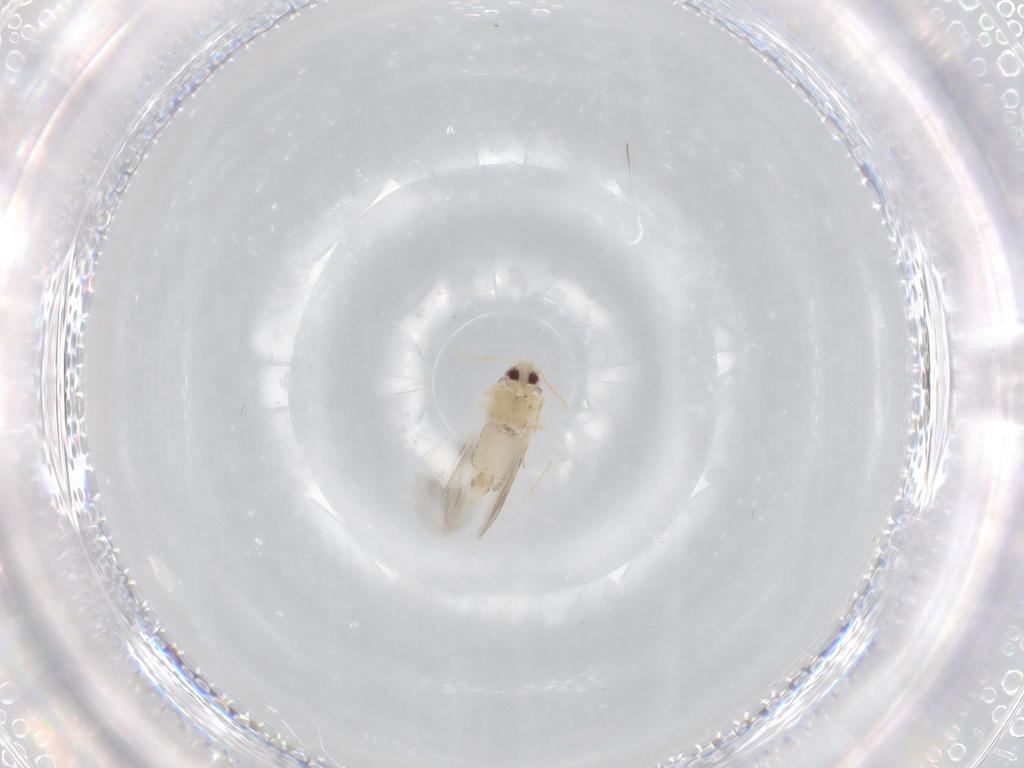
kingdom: Animalia
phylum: Arthropoda
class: Insecta
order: Hemiptera
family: Aleyrodidae
